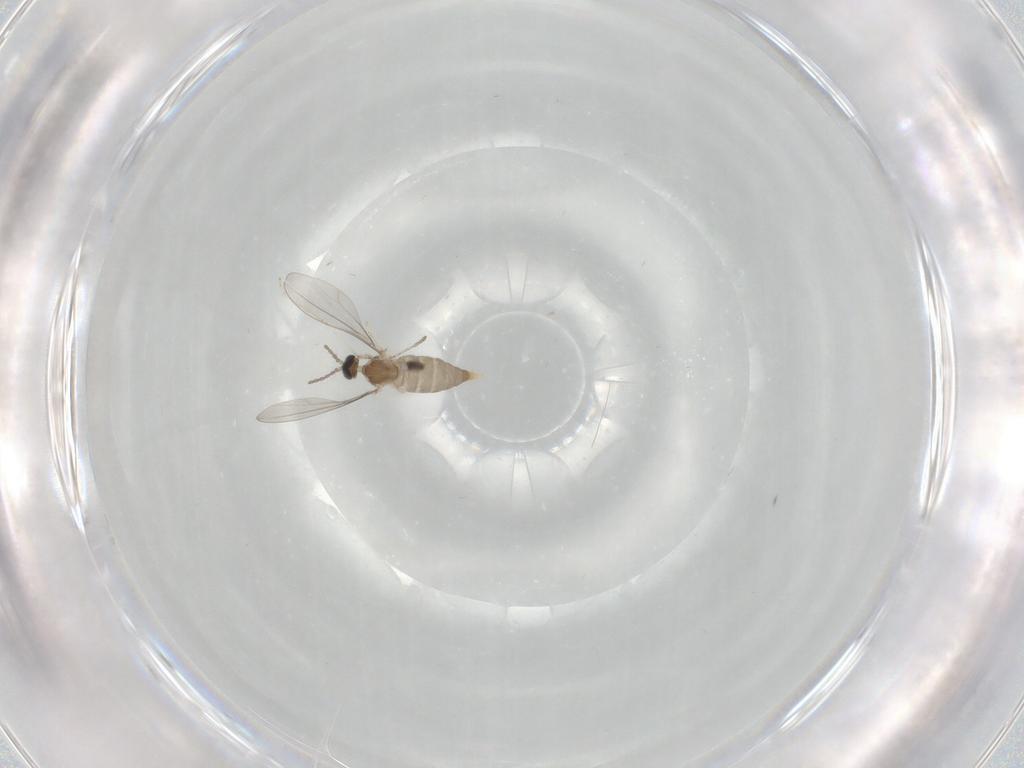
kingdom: Animalia
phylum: Arthropoda
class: Insecta
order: Diptera
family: Cecidomyiidae
